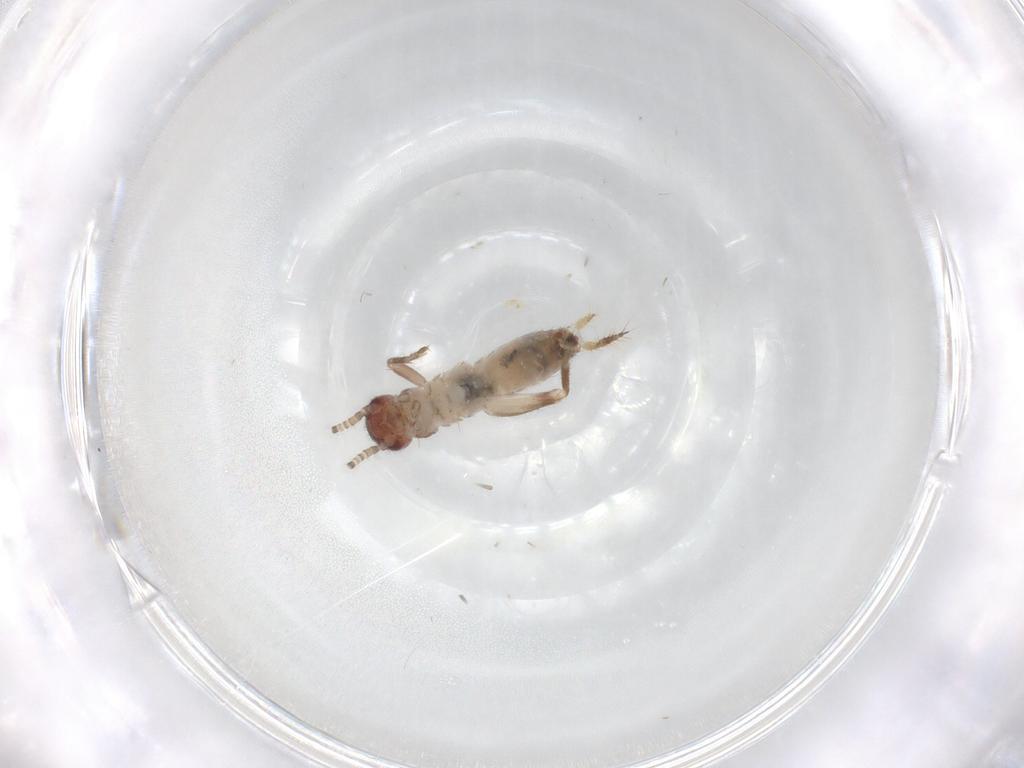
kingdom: Animalia
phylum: Arthropoda
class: Insecta
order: Orthoptera
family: Mogoplistidae
